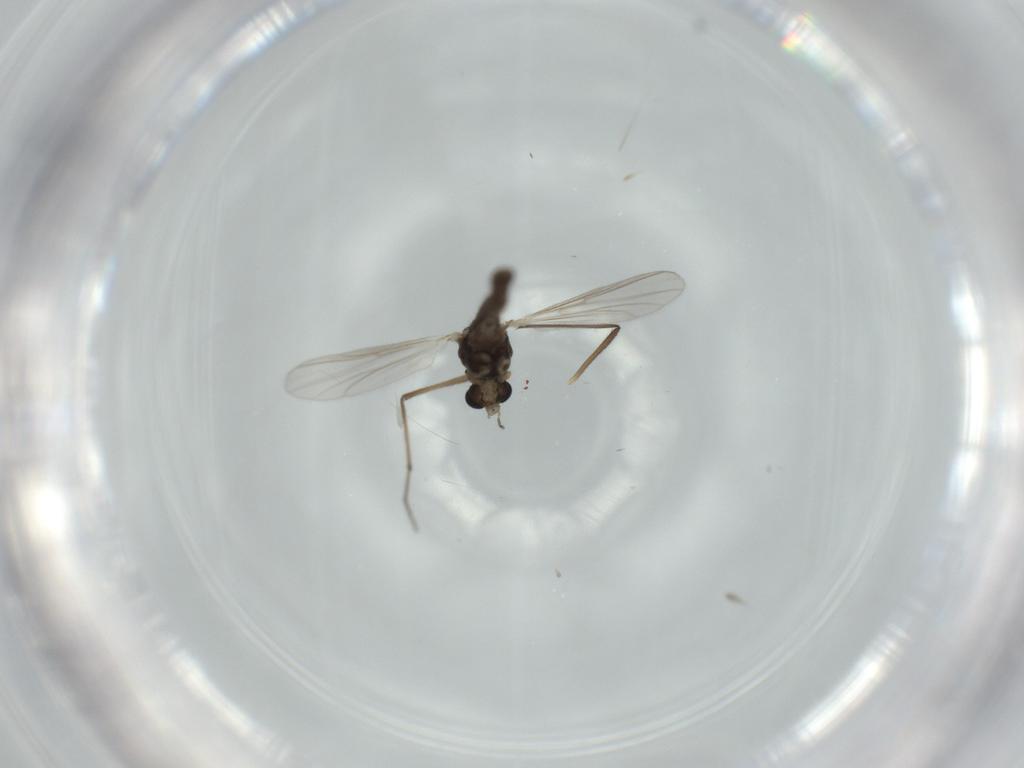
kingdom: Animalia
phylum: Arthropoda
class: Insecta
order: Diptera
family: Chironomidae
